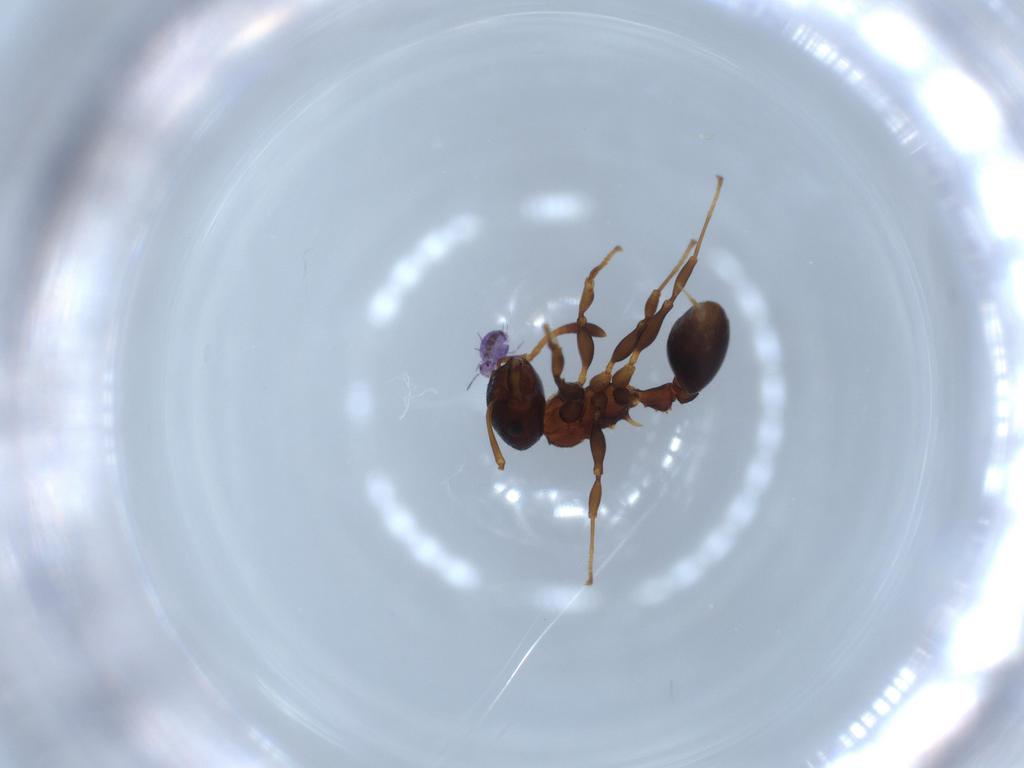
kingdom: Animalia
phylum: Arthropoda
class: Collembola
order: Symphypleona
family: Sminthurididae
